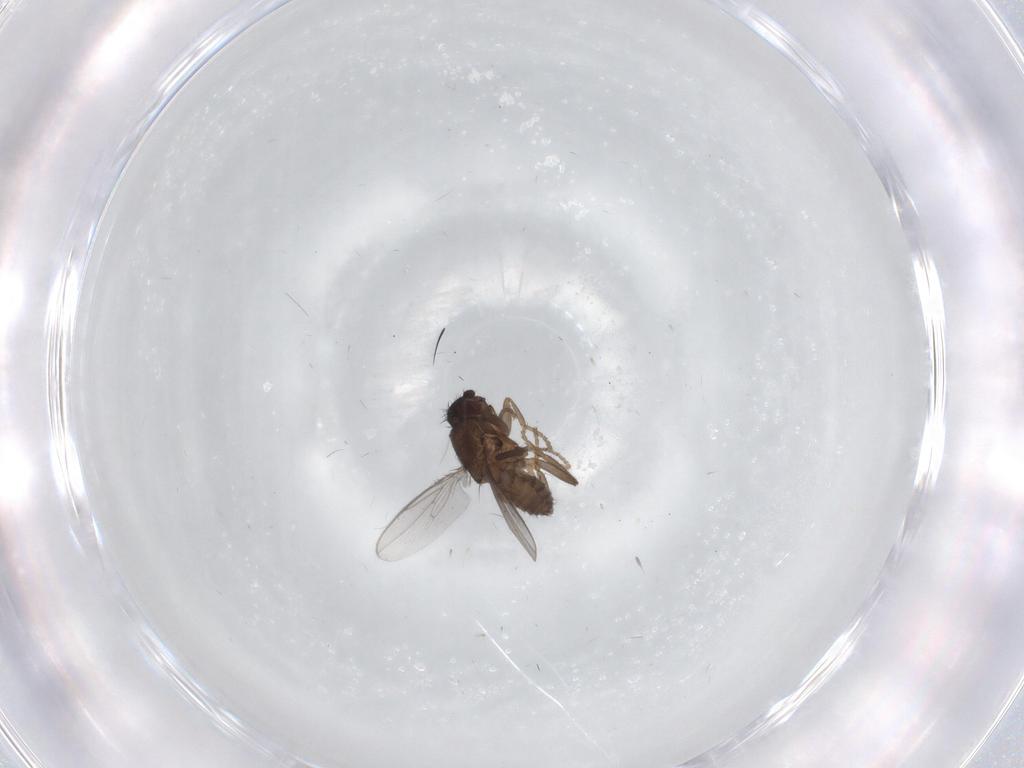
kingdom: Animalia
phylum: Arthropoda
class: Insecta
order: Diptera
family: Sphaeroceridae
